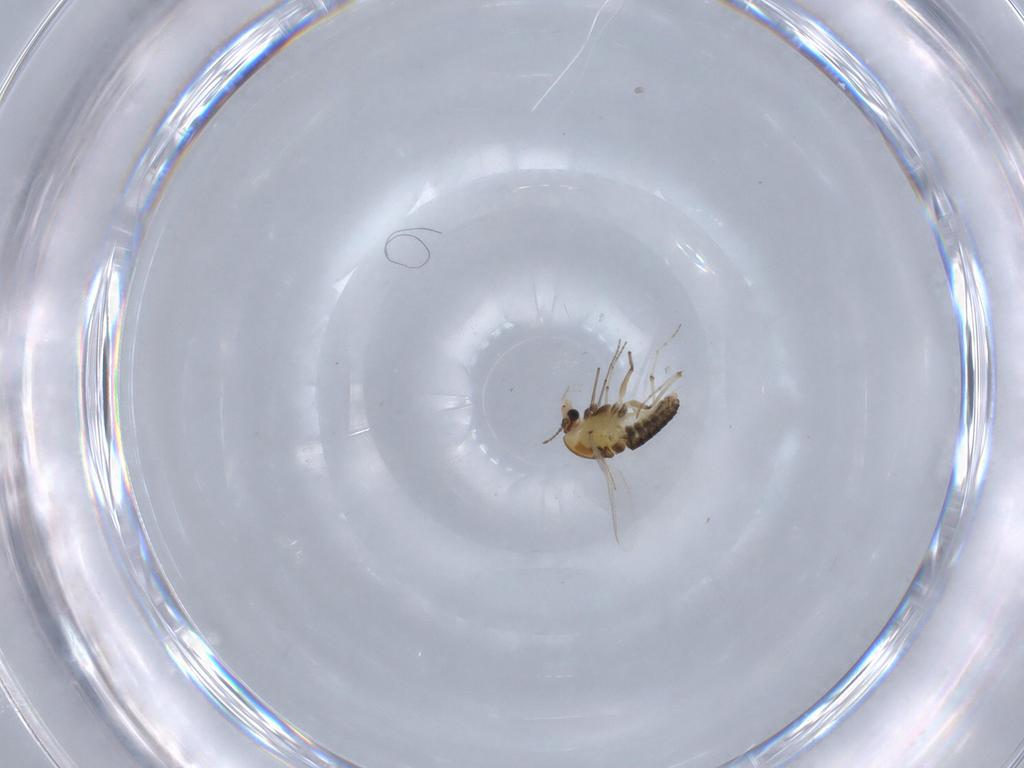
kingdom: Animalia
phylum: Arthropoda
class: Insecta
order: Diptera
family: Chironomidae
